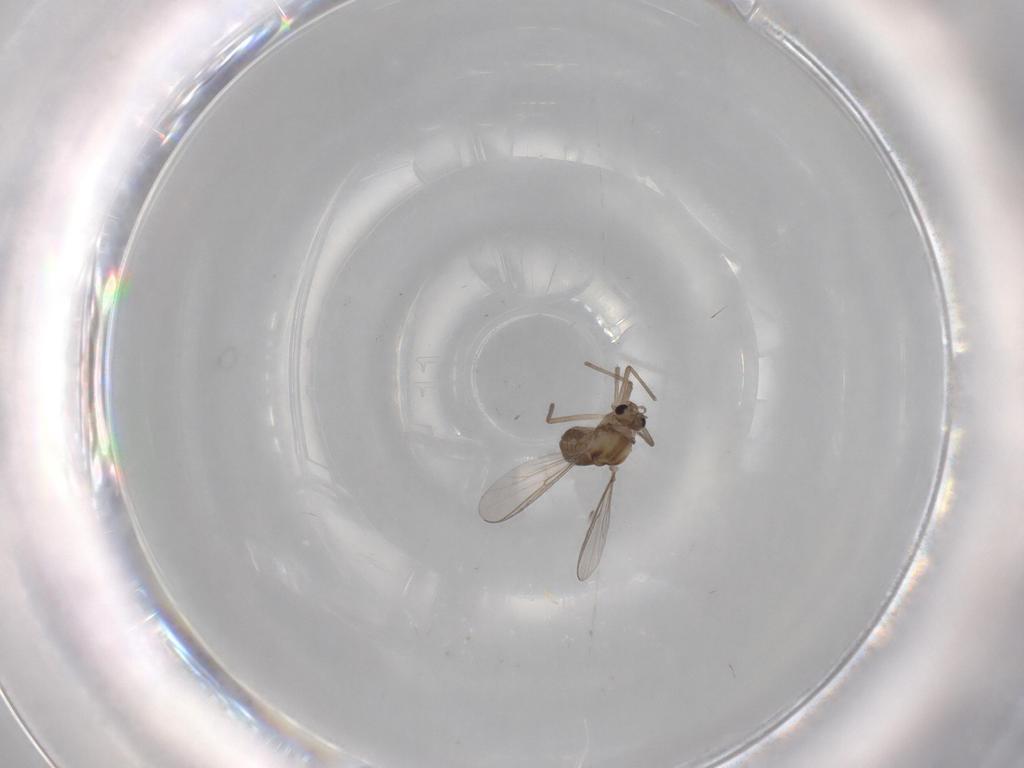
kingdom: Animalia
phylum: Arthropoda
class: Insecta
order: Diptera
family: Chironomidae
